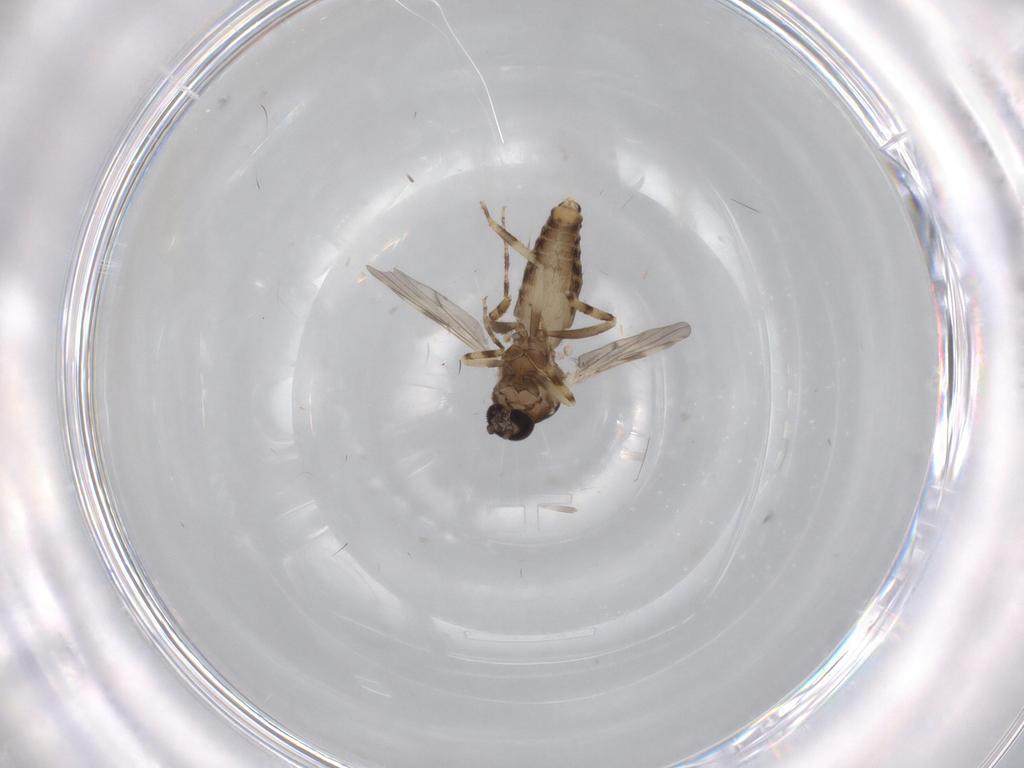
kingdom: Animalia
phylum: Arthropoda
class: Insecta
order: Diptera
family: Ceratopogonidae
